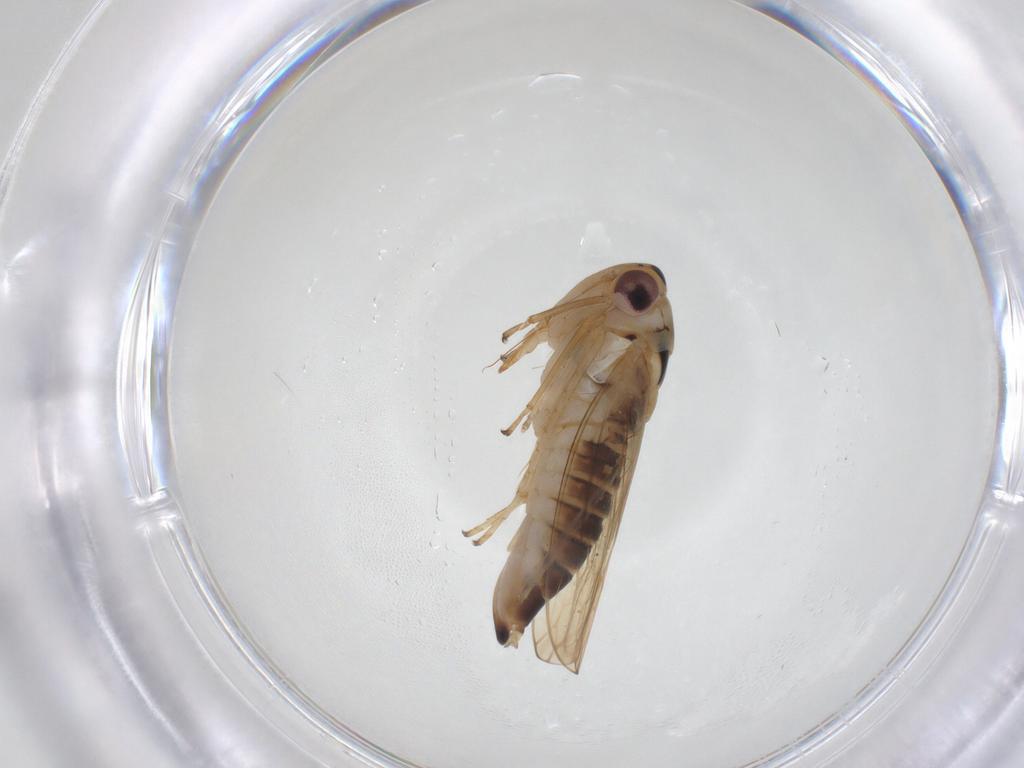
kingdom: Animalia
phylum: Arthropoda
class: Insecta
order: Hemiptera
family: Cicadellidae
